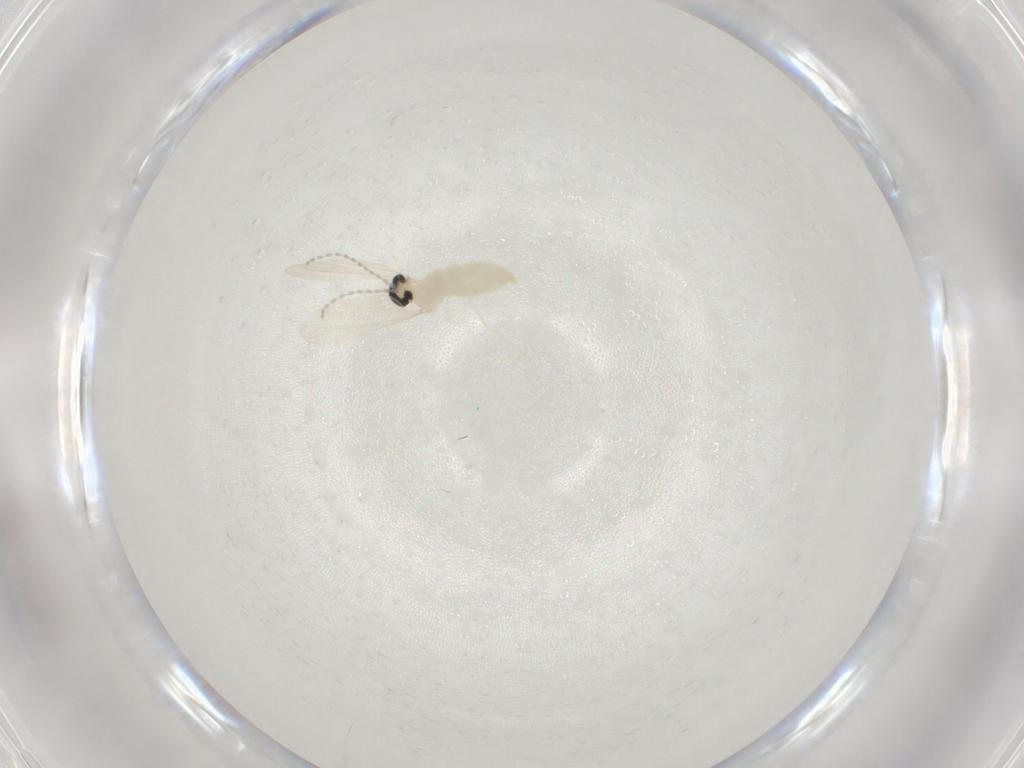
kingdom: Animalia
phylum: Arthropoda
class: Insecta
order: Diptera
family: Cecidomyiidae
